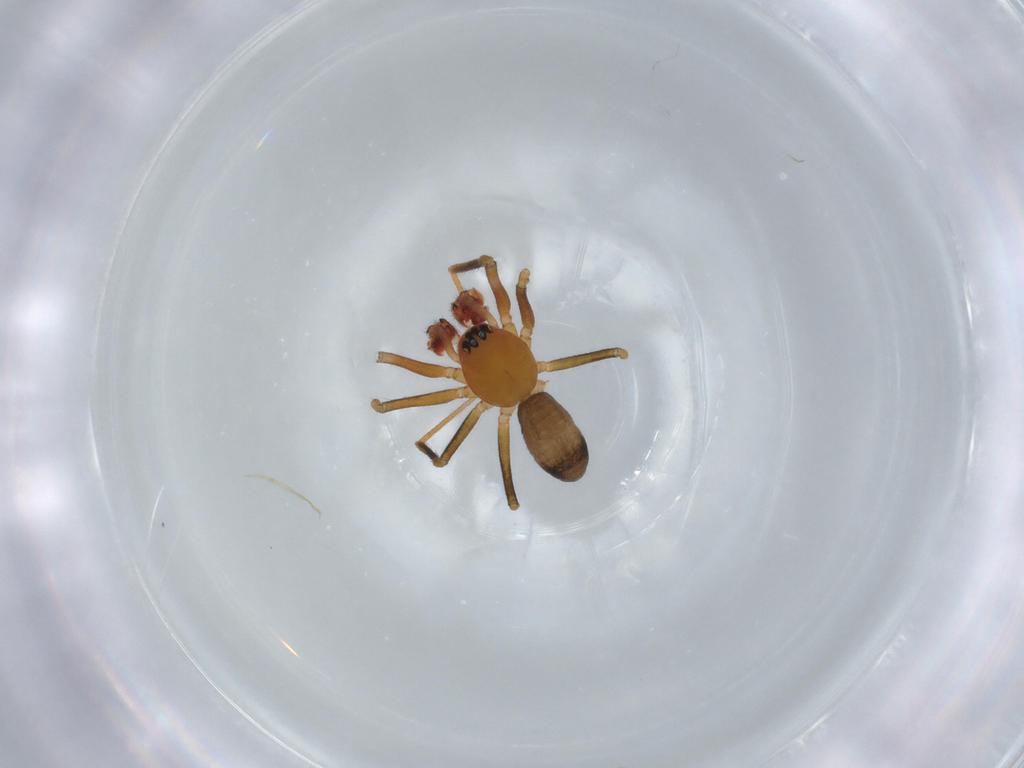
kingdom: Animalia
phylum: Arthropoda
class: Arachnida
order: Araneae
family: Linyphiidae
